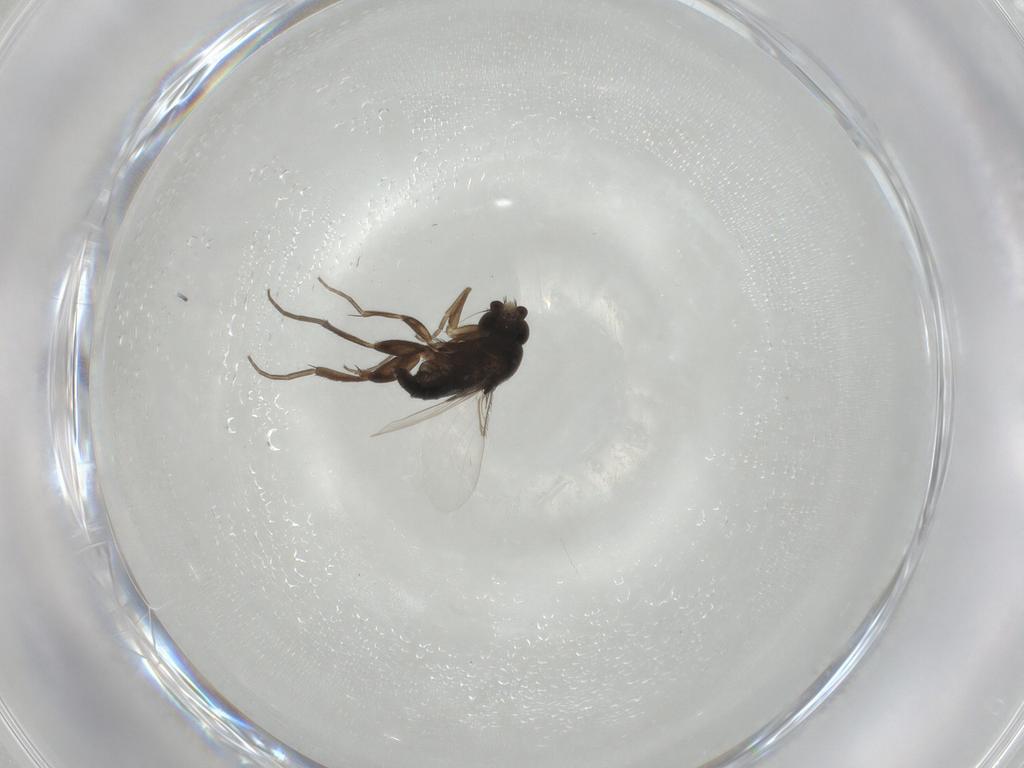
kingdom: Animalia
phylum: Arthropoda
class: Insecta
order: Diptera
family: Phoridae
